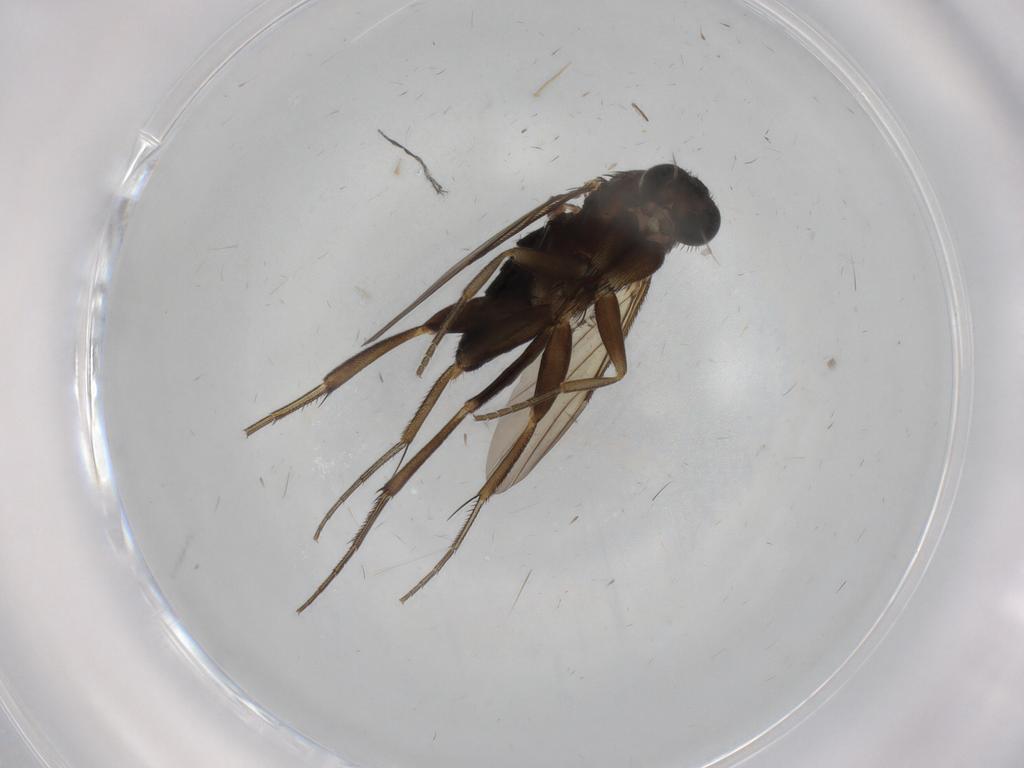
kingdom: Animalia
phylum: Arthropoda
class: Insecta
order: Diptera
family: Phoridae
